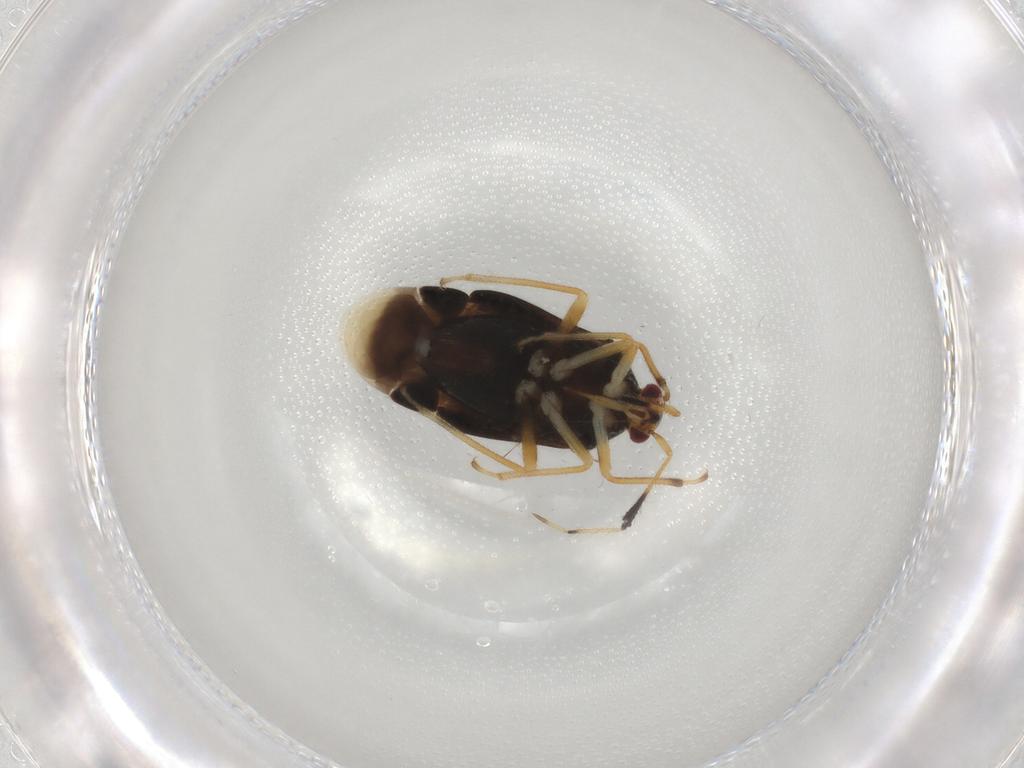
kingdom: Animalia
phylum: Arthropoda
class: Insecta
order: Hemiptera
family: Miridae
